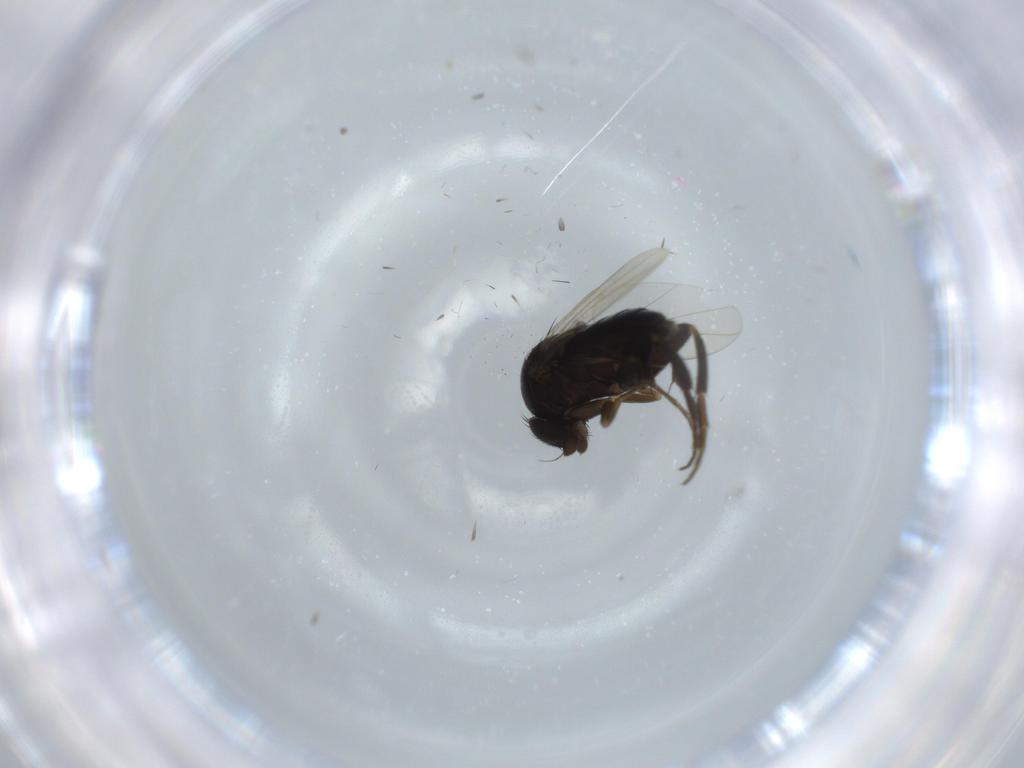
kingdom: Animalia
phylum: Arthropoda
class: Insecta
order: Diptera
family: Phoridae
